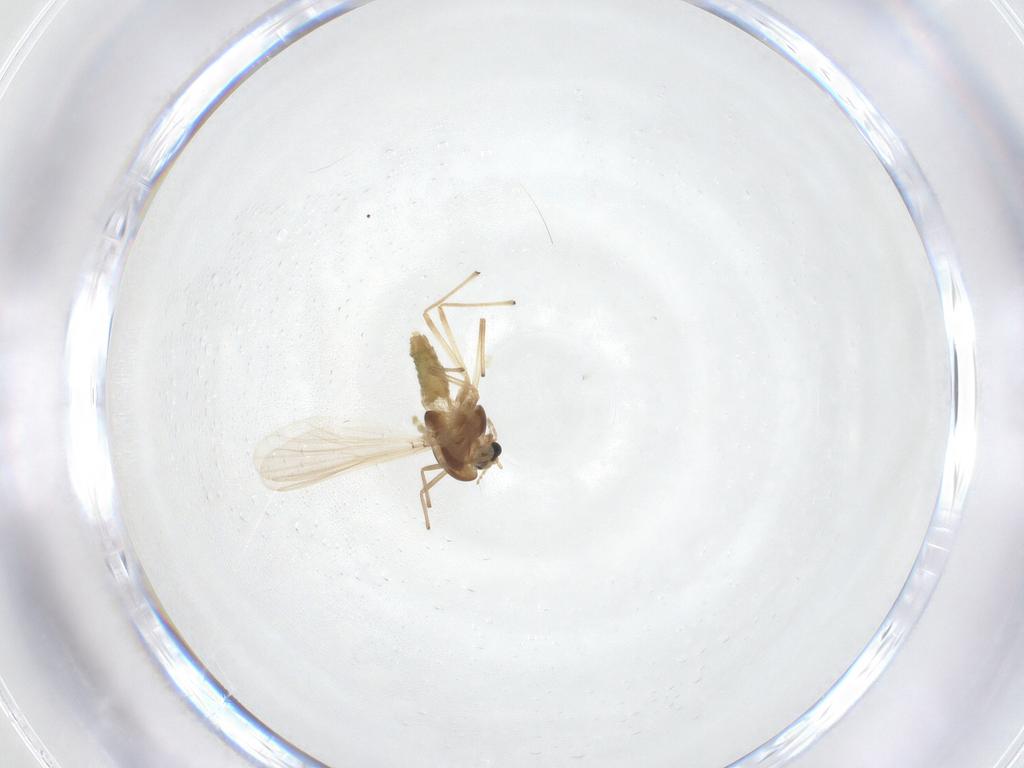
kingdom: Animalia
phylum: Arthropoda
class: Insecta
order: Diptera
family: Chironomidae
